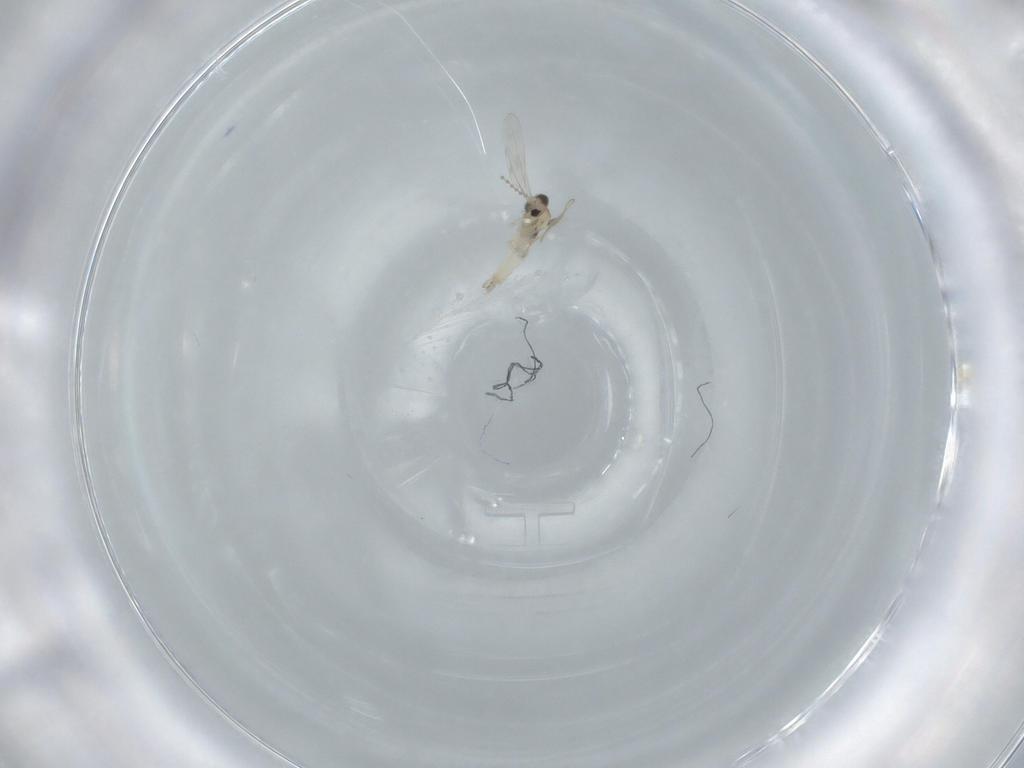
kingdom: Animalia
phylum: Arthropoda
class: Insecta
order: Diptera
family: Cecidomyiidae
